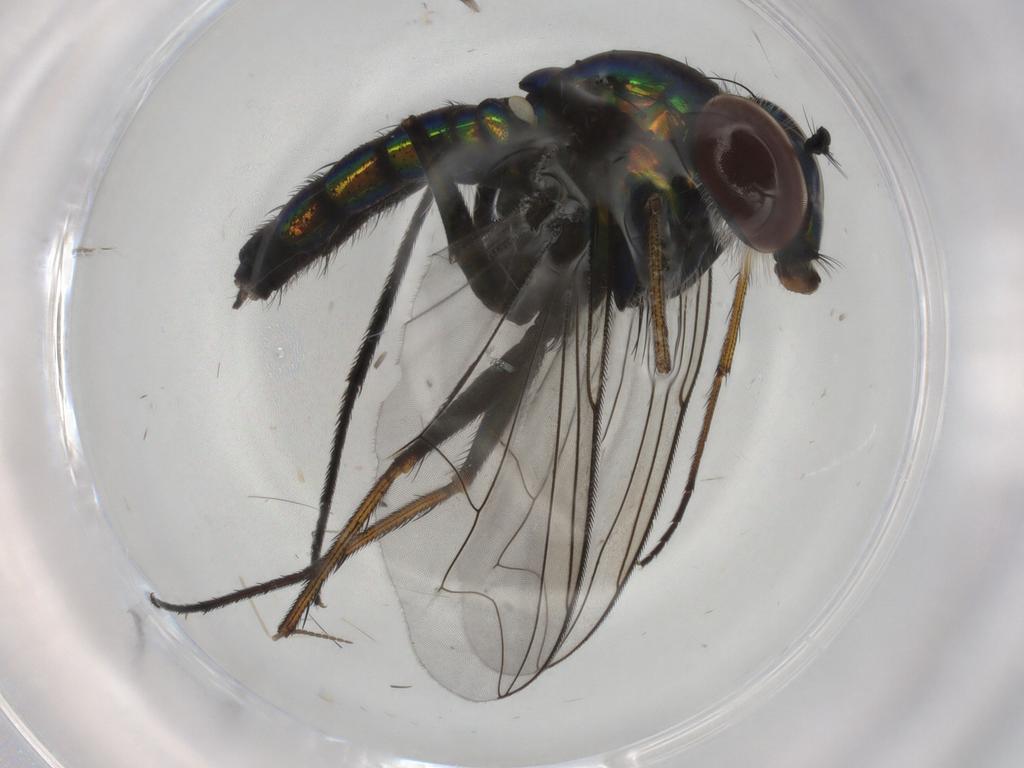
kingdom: Animalia
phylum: Arthropoda
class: Insecta
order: Diptera
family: Dolichopodidae
